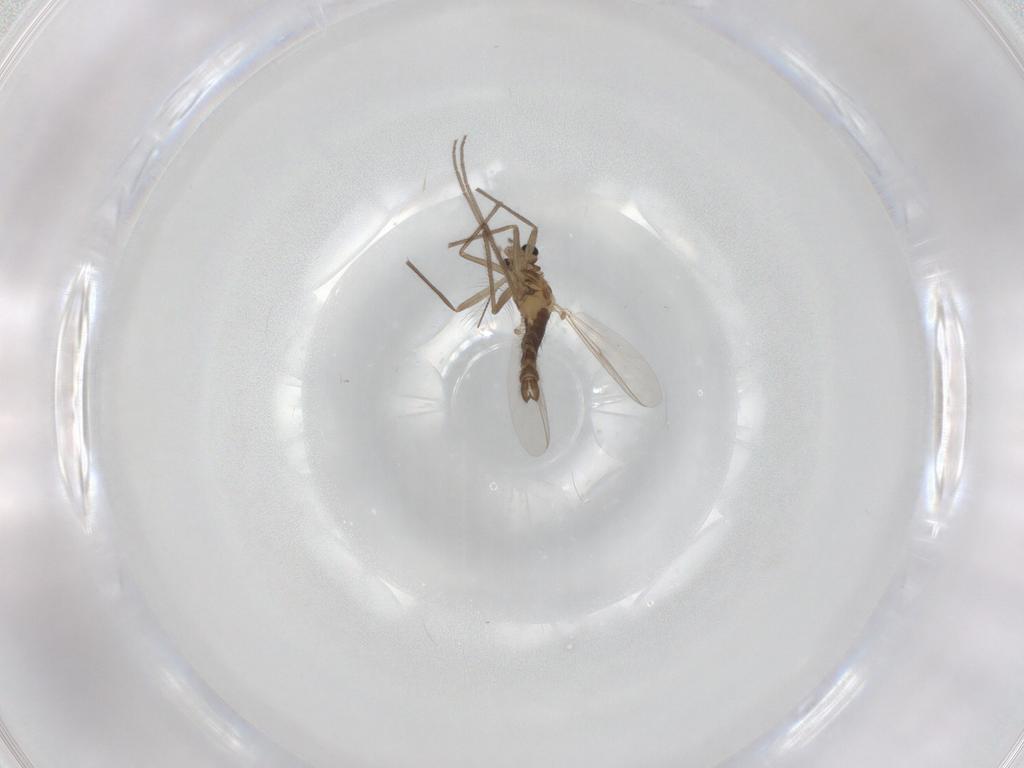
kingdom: Animalia
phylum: Arthropoda
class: Insecta
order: Diptera
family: Chironomidae
